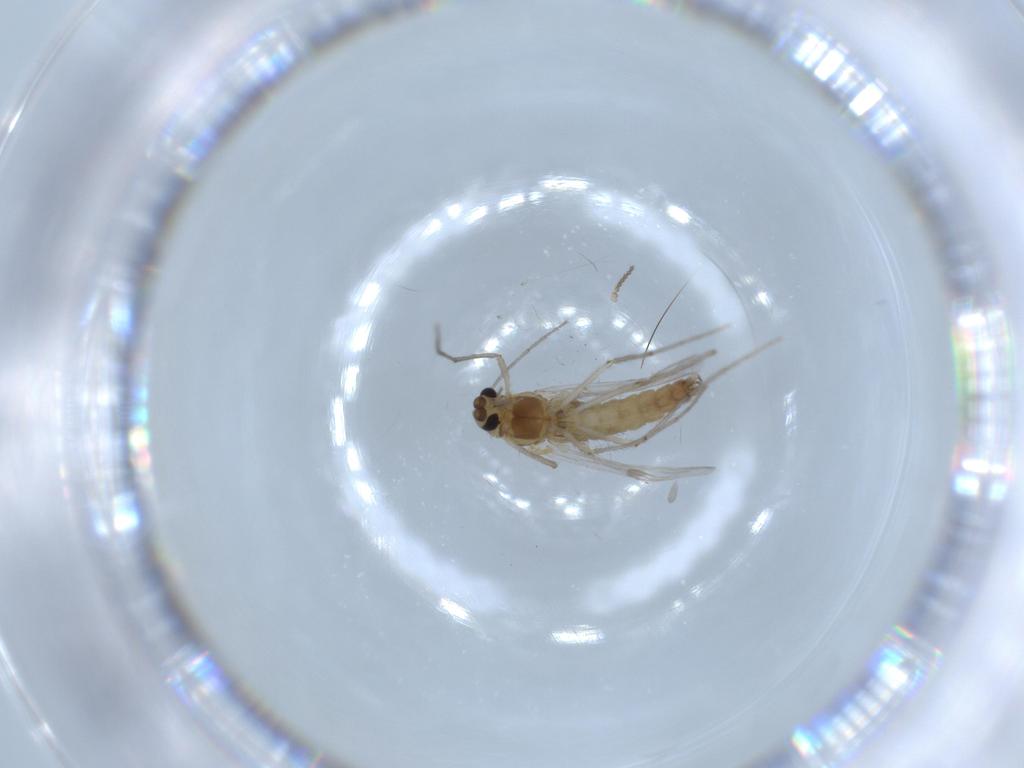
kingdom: Animalia
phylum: Arthropoda
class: Insecta
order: Diptera
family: Chironomidae
